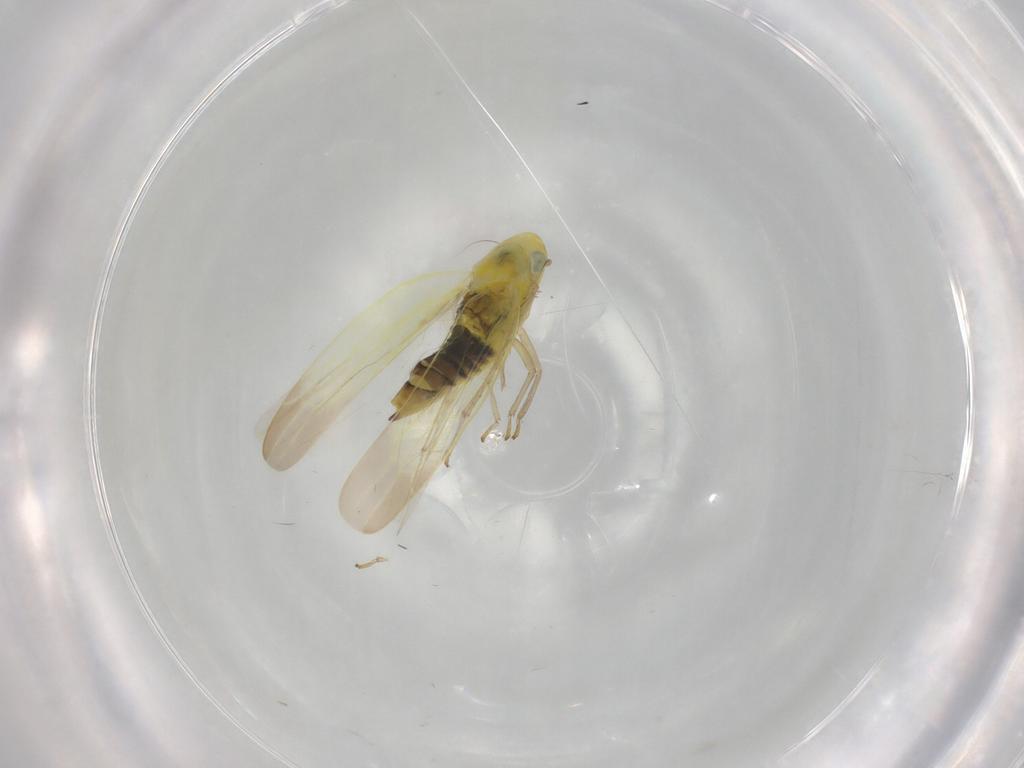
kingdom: Animalia
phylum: Arthropoda
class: Insecta
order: Hemiptera
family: Cicadellidae
